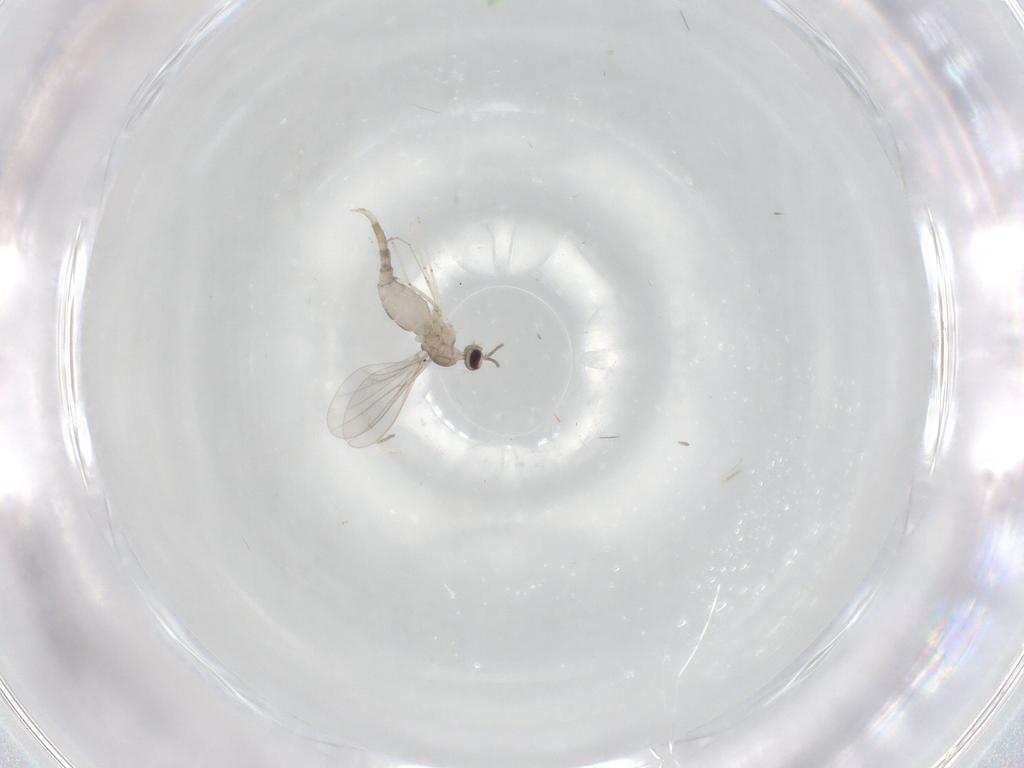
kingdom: Animalia
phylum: Arthropoda
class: Insecta
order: Diptera
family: Cecidomyiidae
